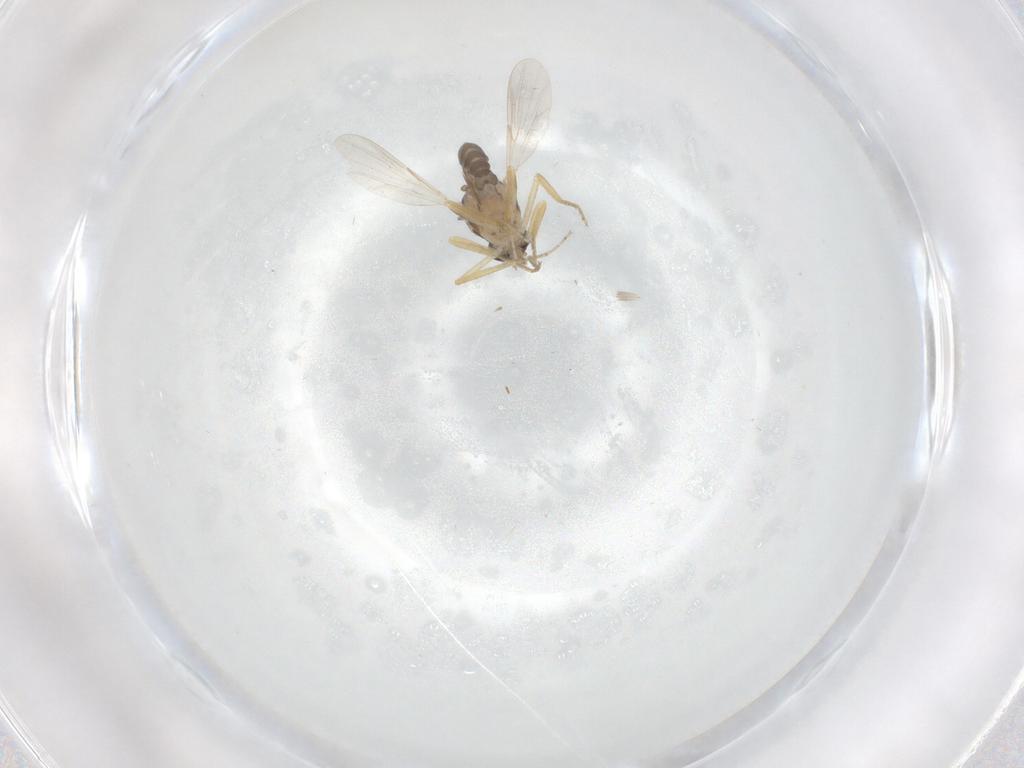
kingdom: Animalia
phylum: Arthropoda
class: Insecta
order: Diptera
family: Ceratopogonidae
